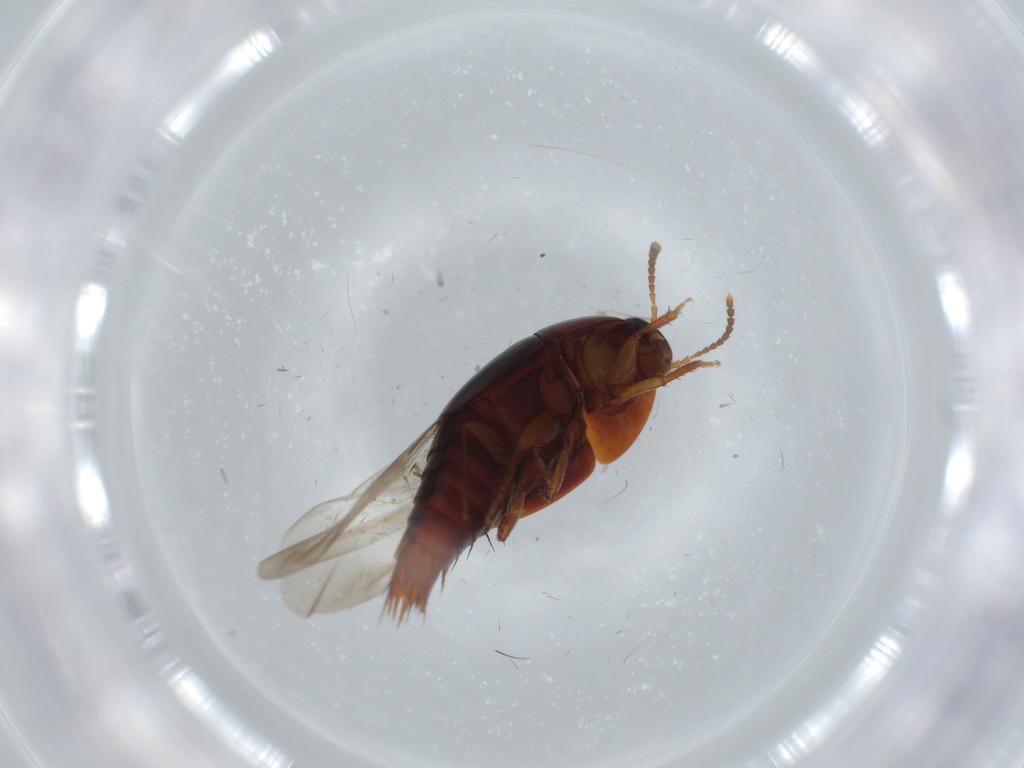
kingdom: Animalia
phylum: Arthropoda
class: Insecta
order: Coleoptera
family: Staphylinidae
